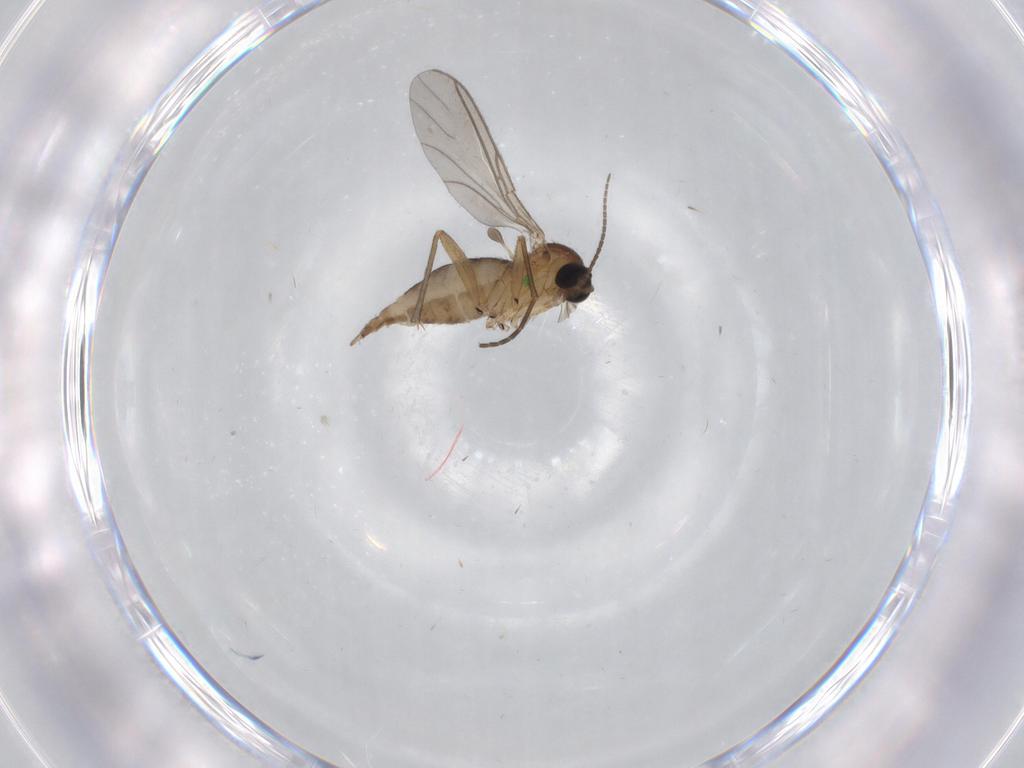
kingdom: Animalia
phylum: Arthropoda
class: Insecta
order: Diptera
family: Sciaridae
